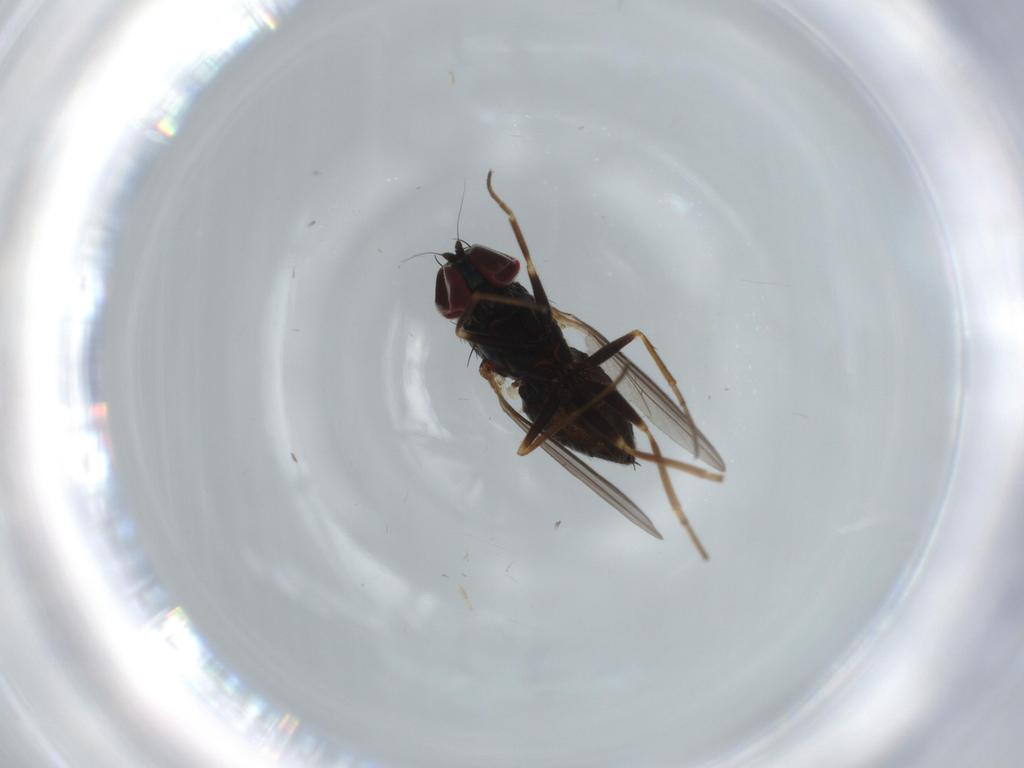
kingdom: Animalia
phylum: Arthropoda
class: Insecta
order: Diptera
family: Dolichopodidae
